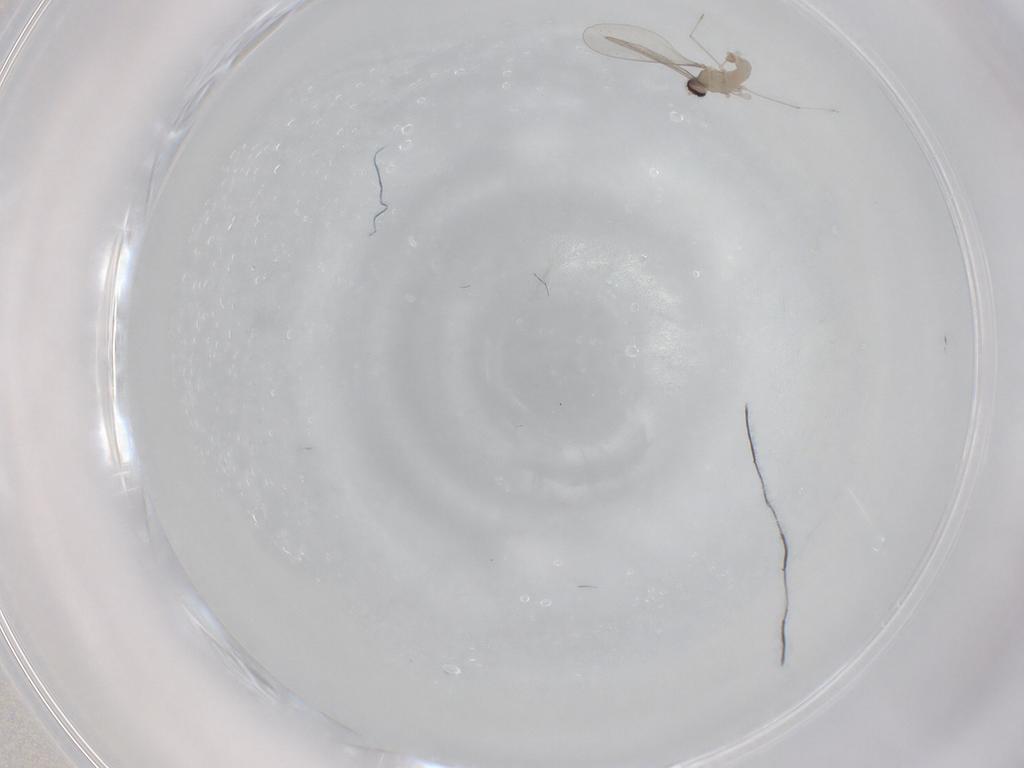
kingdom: Animalia
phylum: Arthropoda
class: Insecta
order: Diptera
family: Cecidomyiidae
